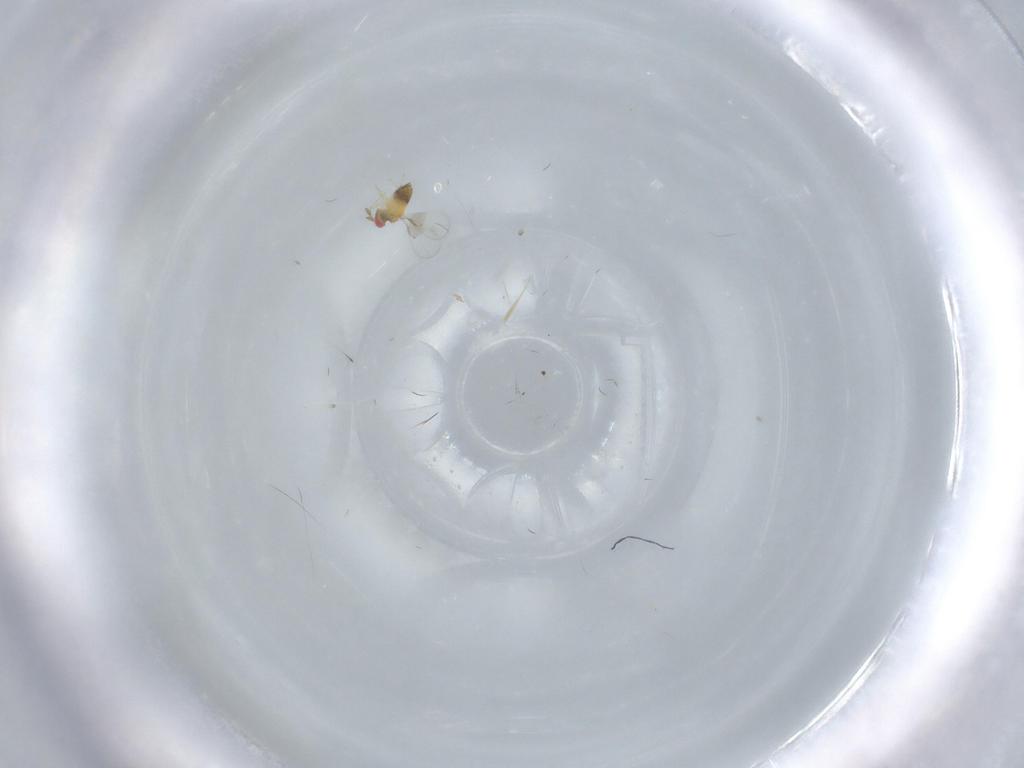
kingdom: Animalia
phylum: Arthropoda
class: Insecta
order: Hymenoptera
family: Trichogrammatidae
